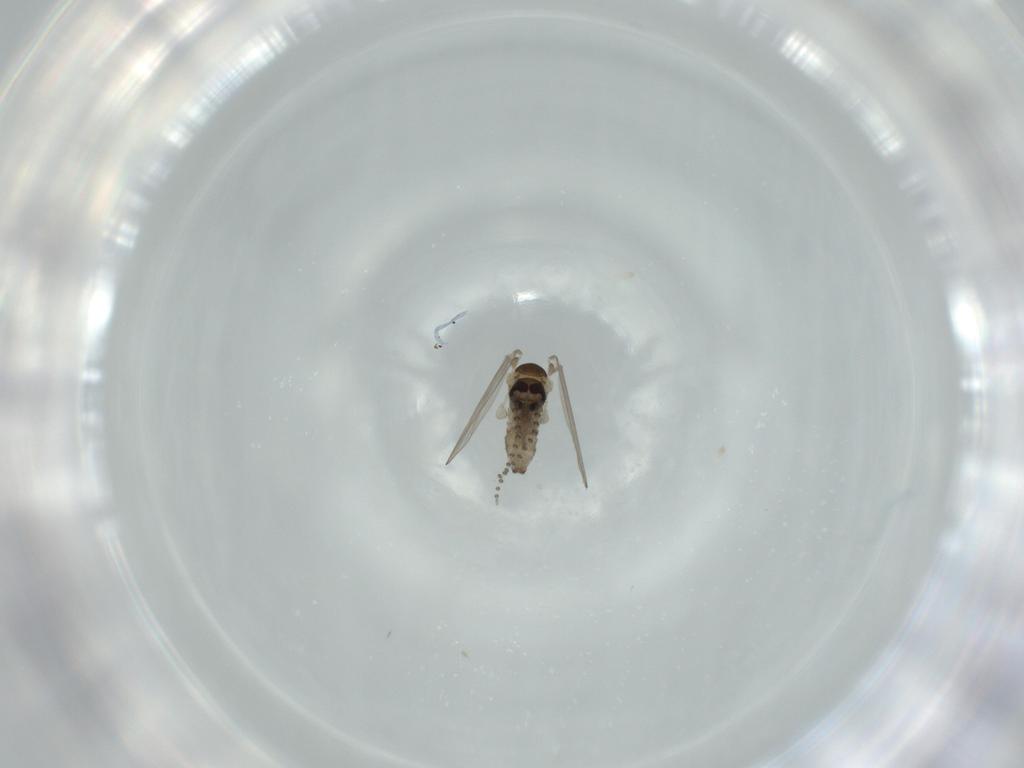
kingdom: Animalia
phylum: Arthropoda
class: Insecta
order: Diptera
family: Psychodidae
